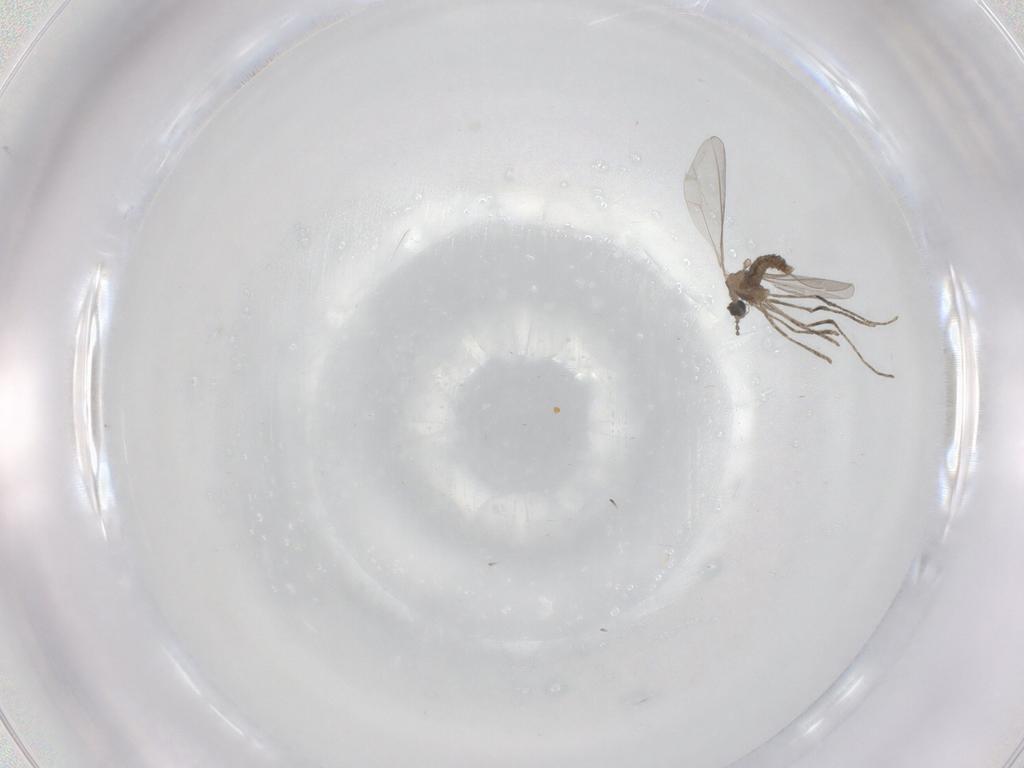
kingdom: Animalia
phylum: Arthropoda
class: Insecta
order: Diptera
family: Cecidomyiidae
